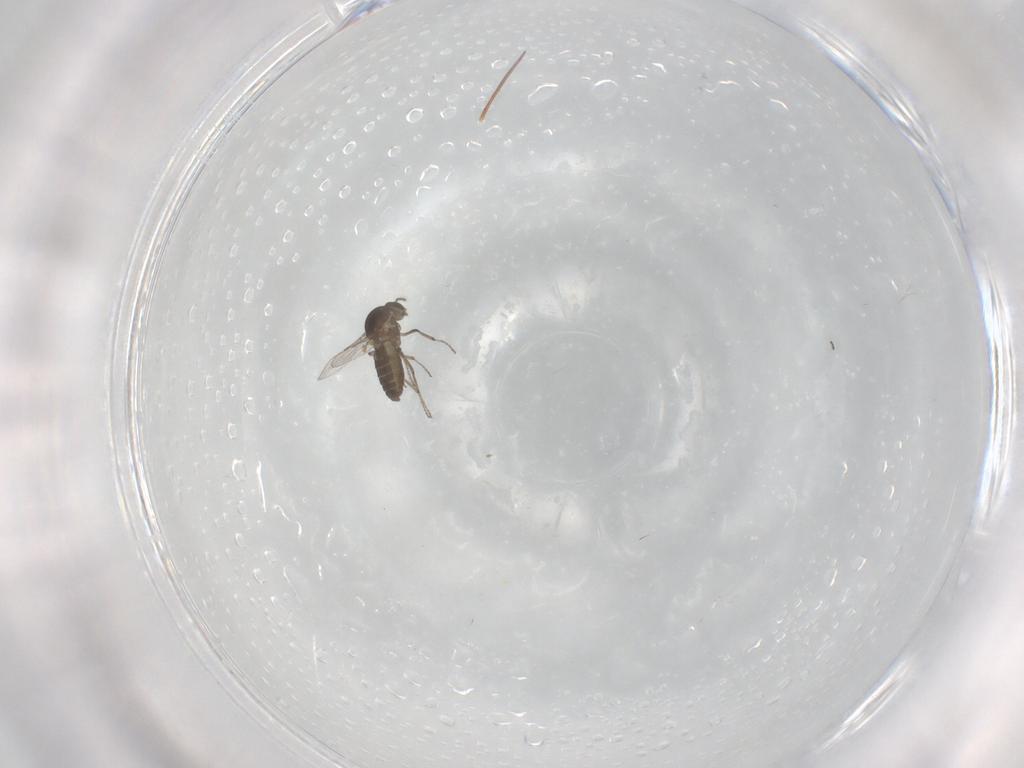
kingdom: Animalia
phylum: Arthropoda
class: Insecta
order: Diptera
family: Ceratopogonidae
